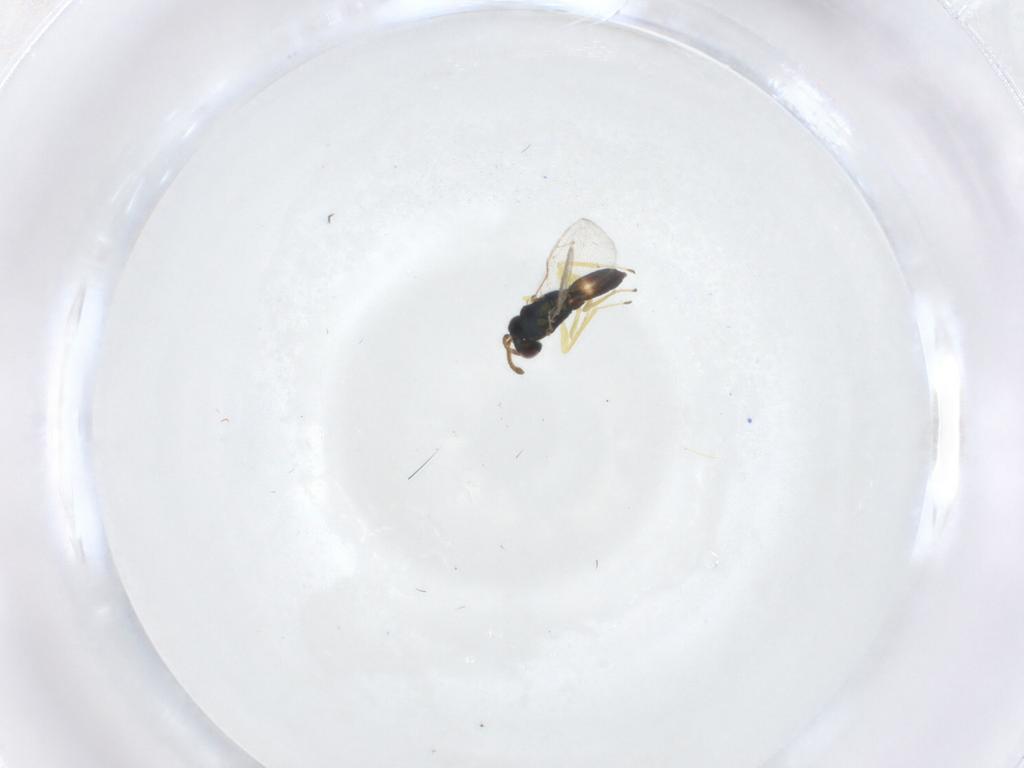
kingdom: Animalia
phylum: Arthropoda
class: Insecta
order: Hymenoptera
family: Pteromalidae
